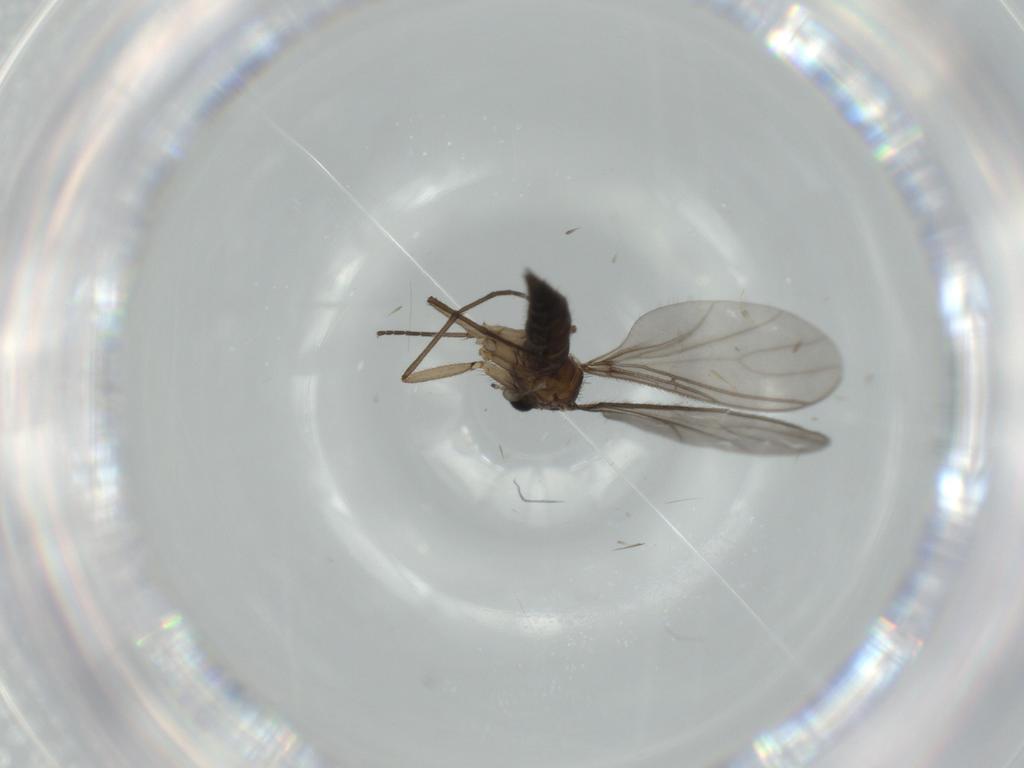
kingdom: Animalia
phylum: Arthropoda
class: Insecta
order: Diptera
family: Sciaridae
